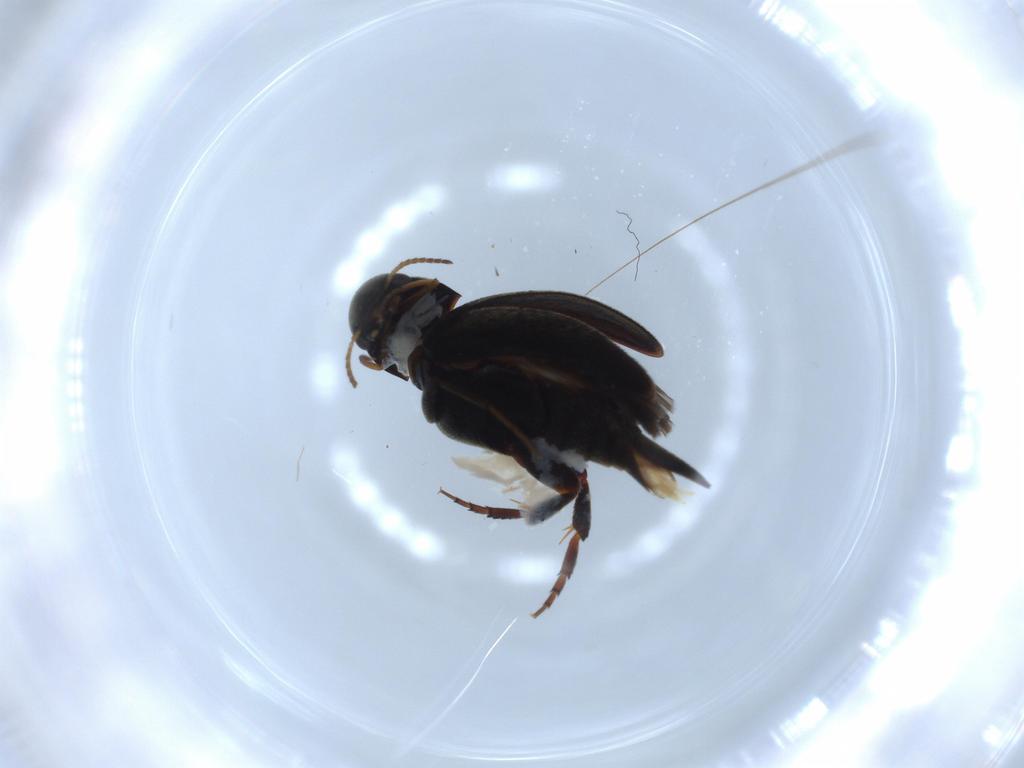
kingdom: Animalia
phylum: Arthropoda
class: Insecta
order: Coleoptera
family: Mordellidae
